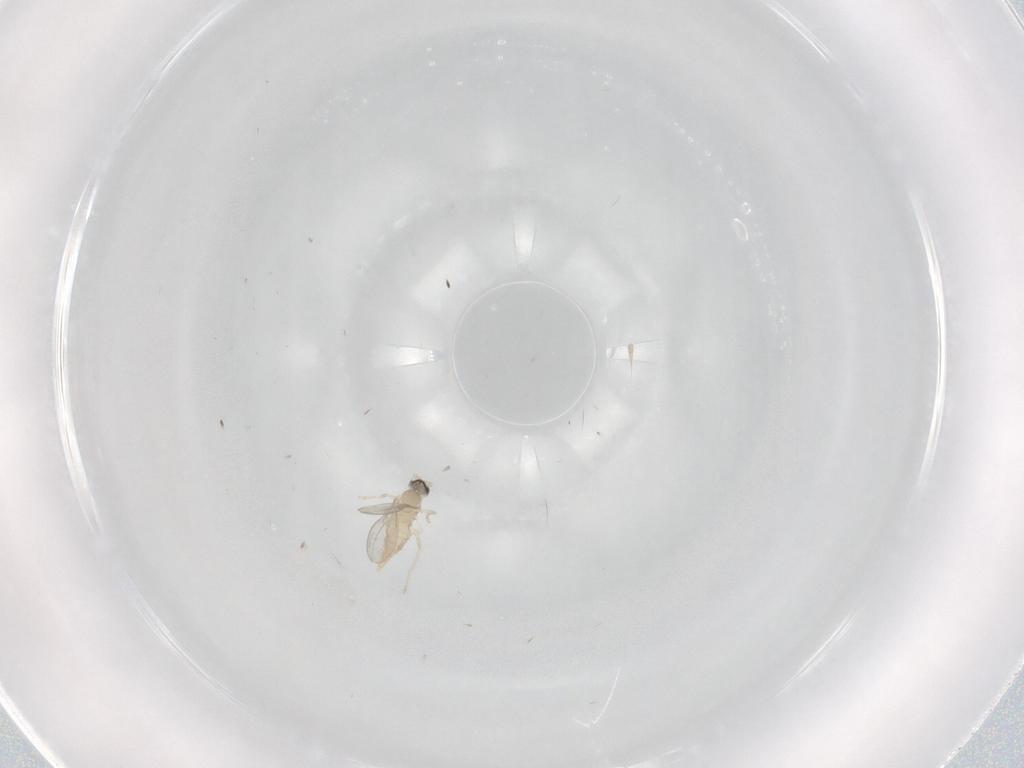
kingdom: Animalia
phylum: Arthropoda
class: Insecta
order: Diptera
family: Cecidomyiidae
